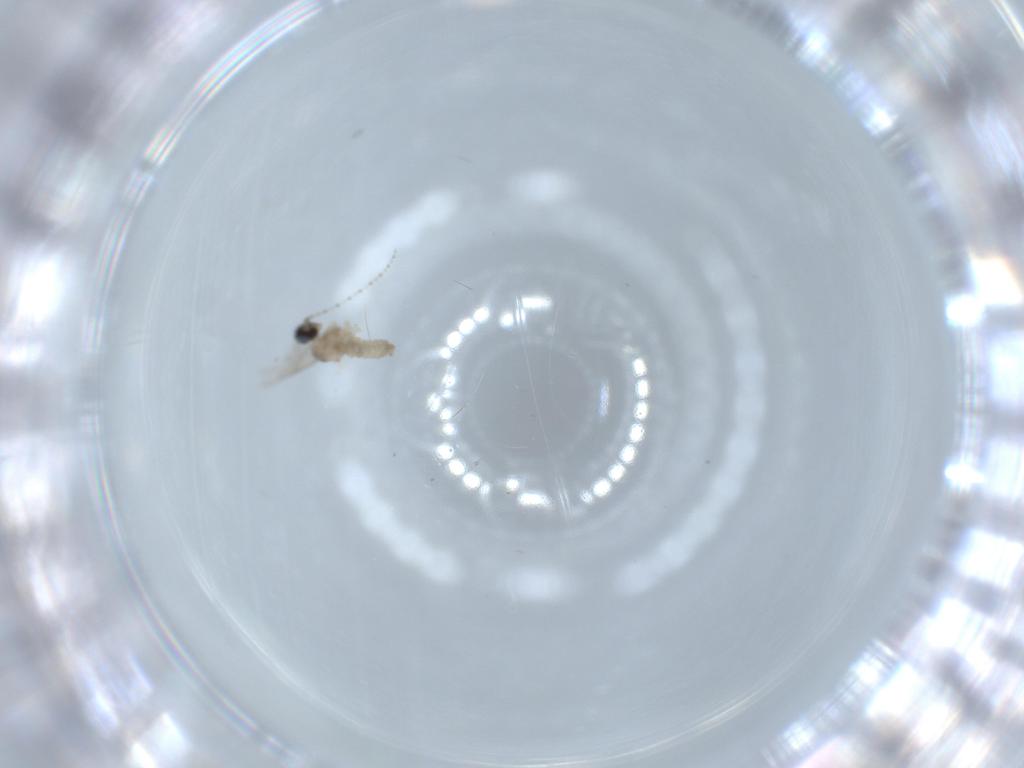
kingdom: Animalia
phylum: Arthropoda
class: Insecta
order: Diptera
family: Cecidomyiidae
